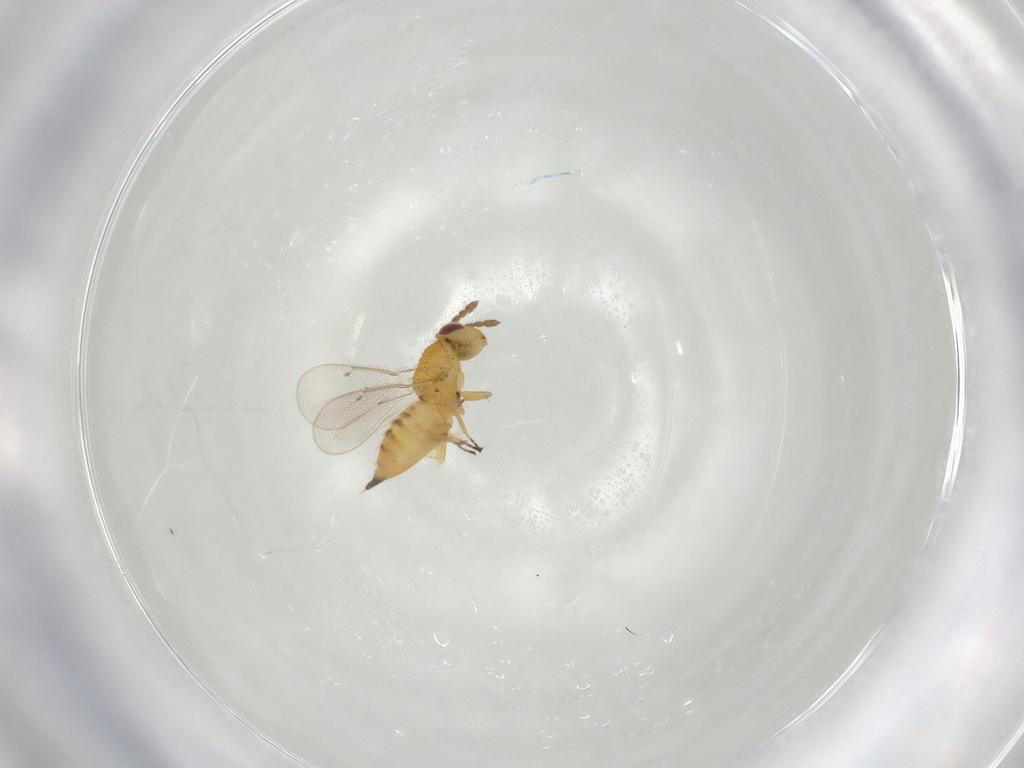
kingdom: Animalia
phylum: Arthropoda
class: Insecta
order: Hymenoptera
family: Eulophidae
